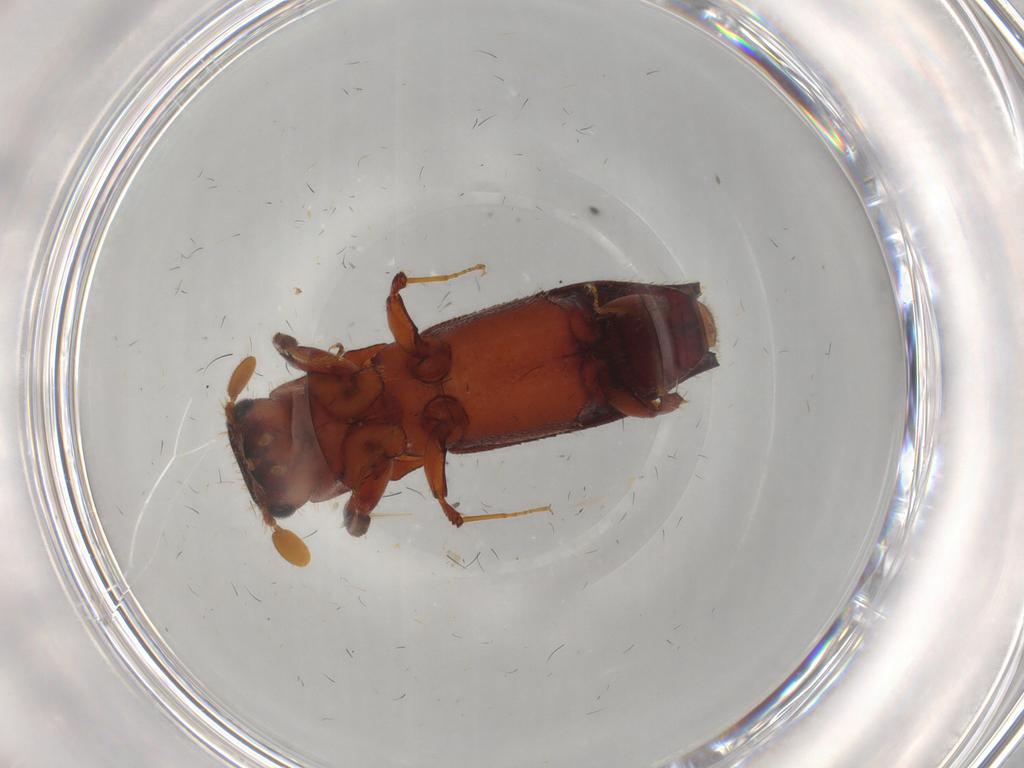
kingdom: Animalia
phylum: Arthropoda
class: Insecta
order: Coleoptera
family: Curculionidae
